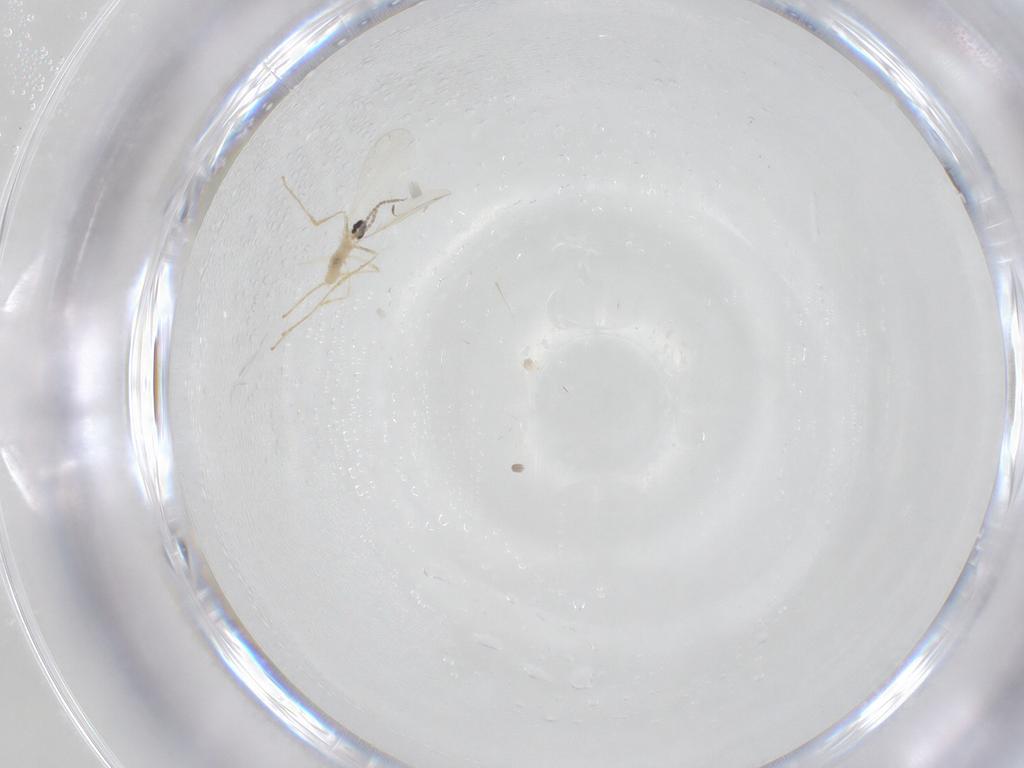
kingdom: Animalia
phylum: Arthropoda
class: Insecta
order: Diptera
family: Cecidomyiidae
